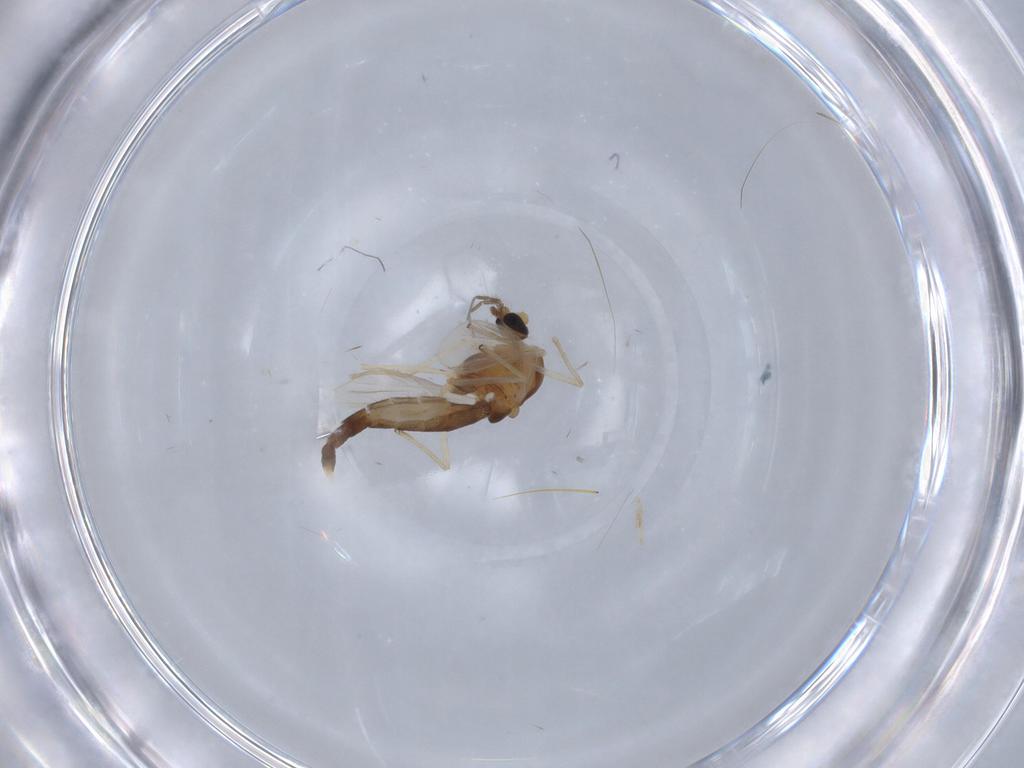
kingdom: Animalia
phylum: Arthropoda
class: Insecta
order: Diptera
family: Chironomidae
